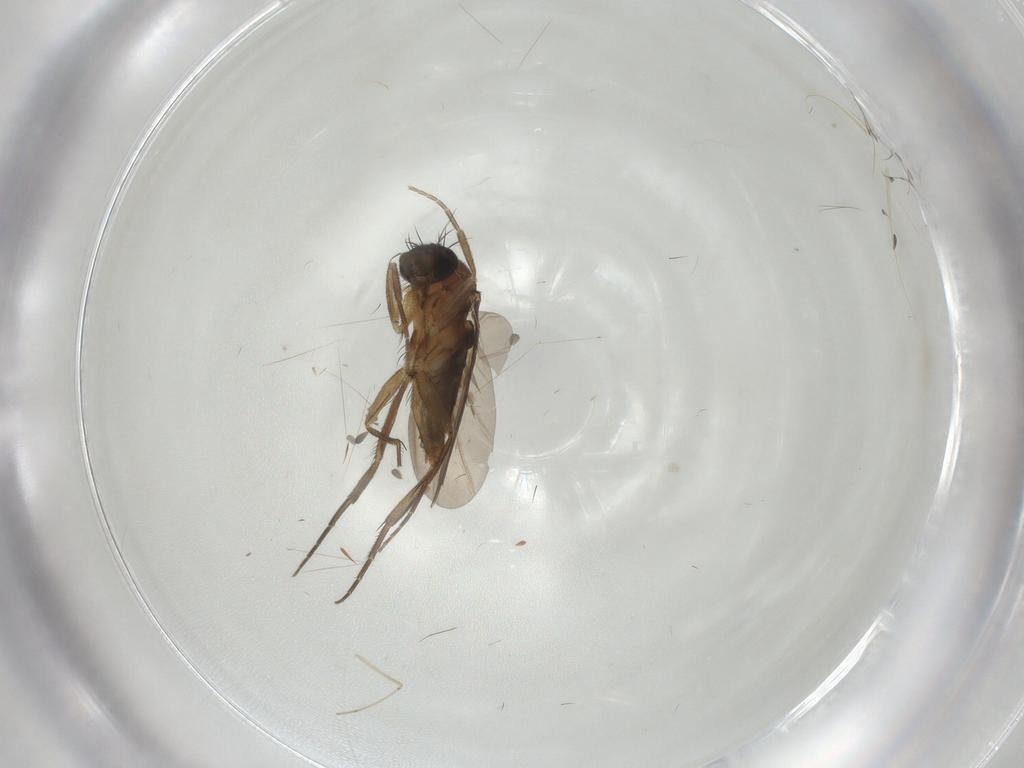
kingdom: Animalia
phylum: Arthropoda
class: Insecta
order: Diptera
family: Phoridae
